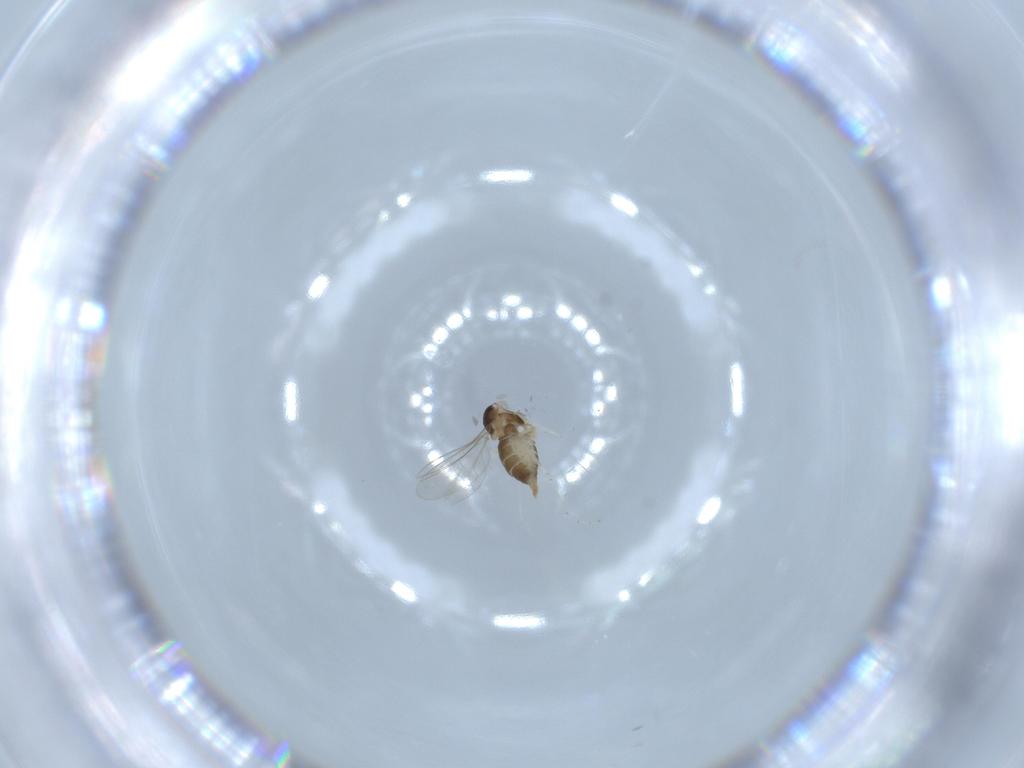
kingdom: Animalia
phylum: Arthropoda
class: Insecta
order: Diptera
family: Cecidomyiidae
